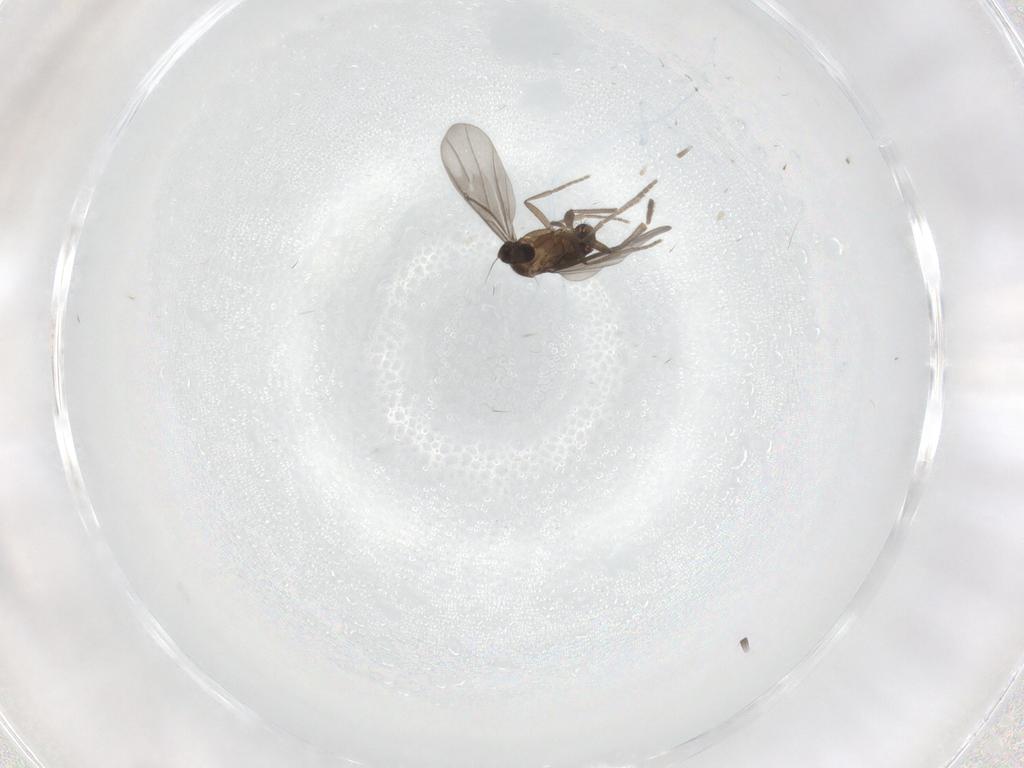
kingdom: Animalia
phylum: Arthropoda
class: Insecta
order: Diptera
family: Phoridae
